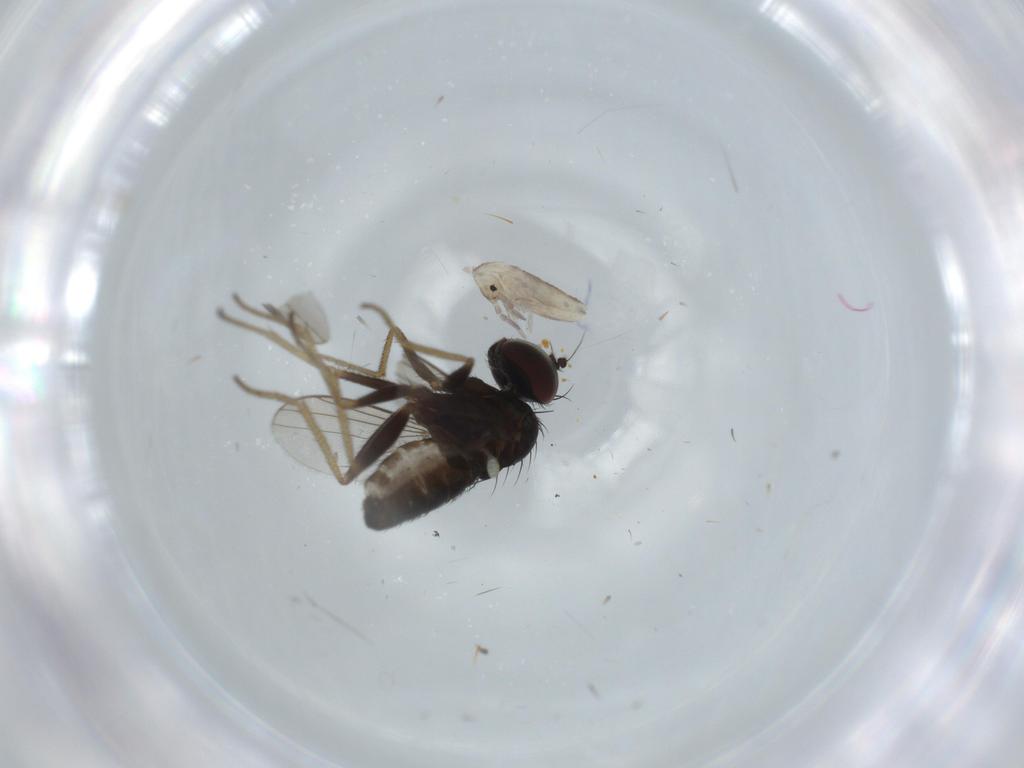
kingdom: Animalia
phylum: Arthropoda
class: Insecta
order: Diptera
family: Dolichopodidae
